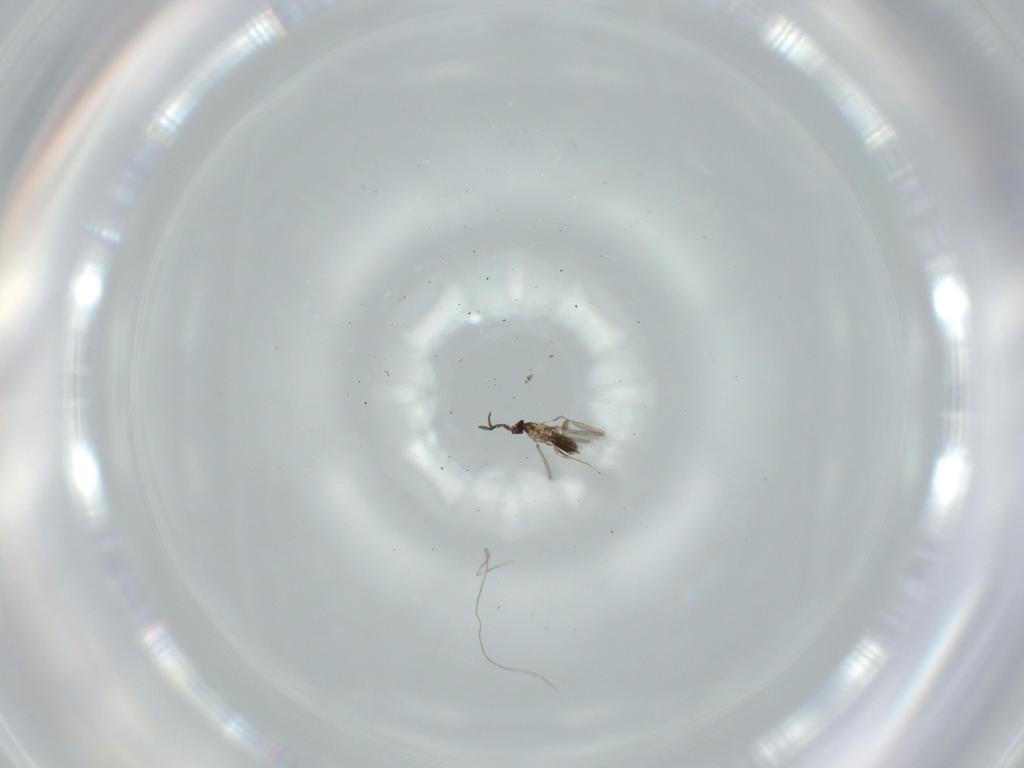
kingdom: Animalia
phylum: Arthropoda
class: Insecta
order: Hymenoptera
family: Mymaridae
